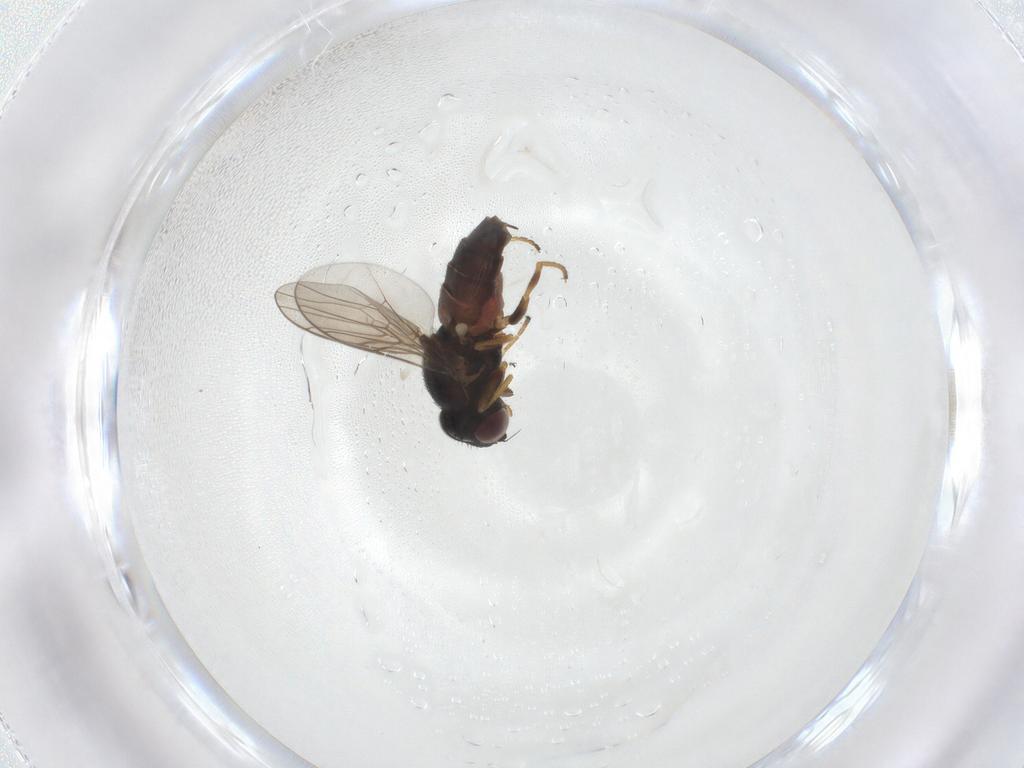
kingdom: Animalia
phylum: Arthropoda
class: Insecta
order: Diptera
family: Chloropidae
